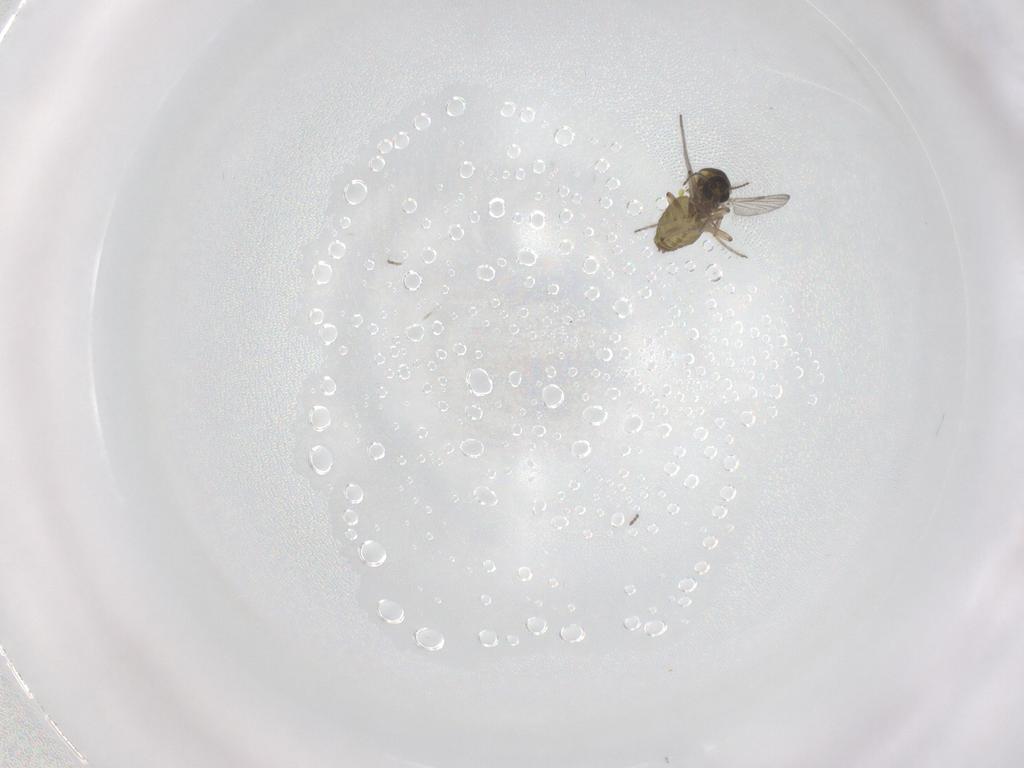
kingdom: Animalia
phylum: Arthropoda
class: Insecta
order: Diptera
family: Ceratopogonidae
